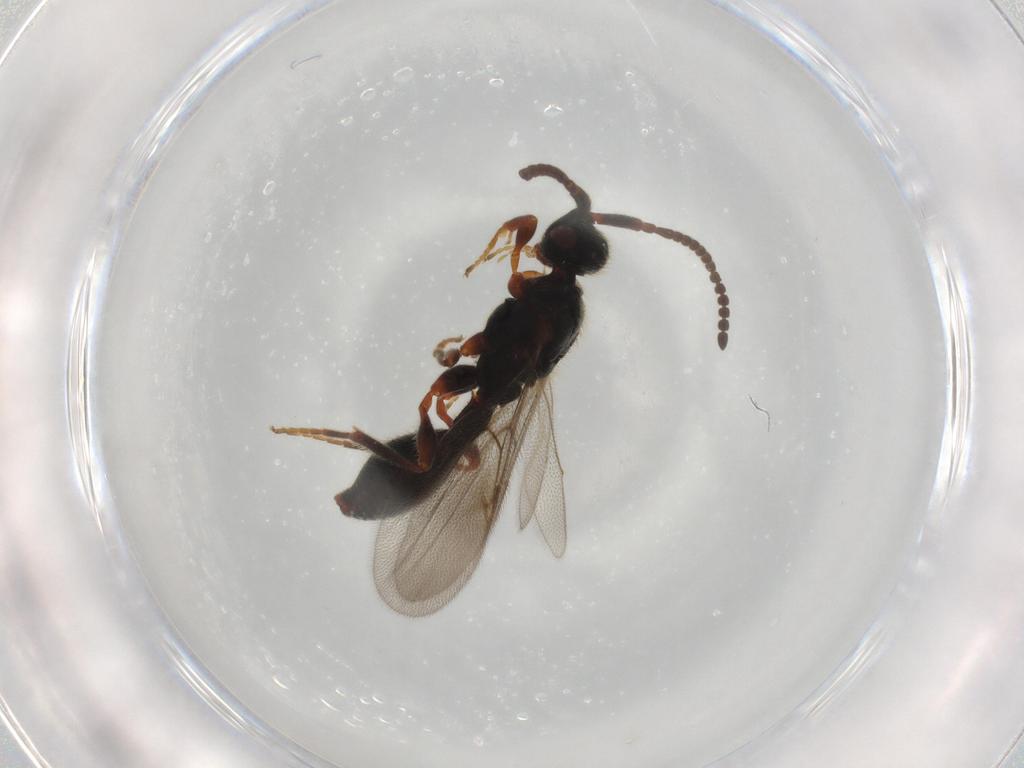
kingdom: Animalia
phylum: Arthropoda
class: Insecta
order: Hymenoptera
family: Diapriidae
